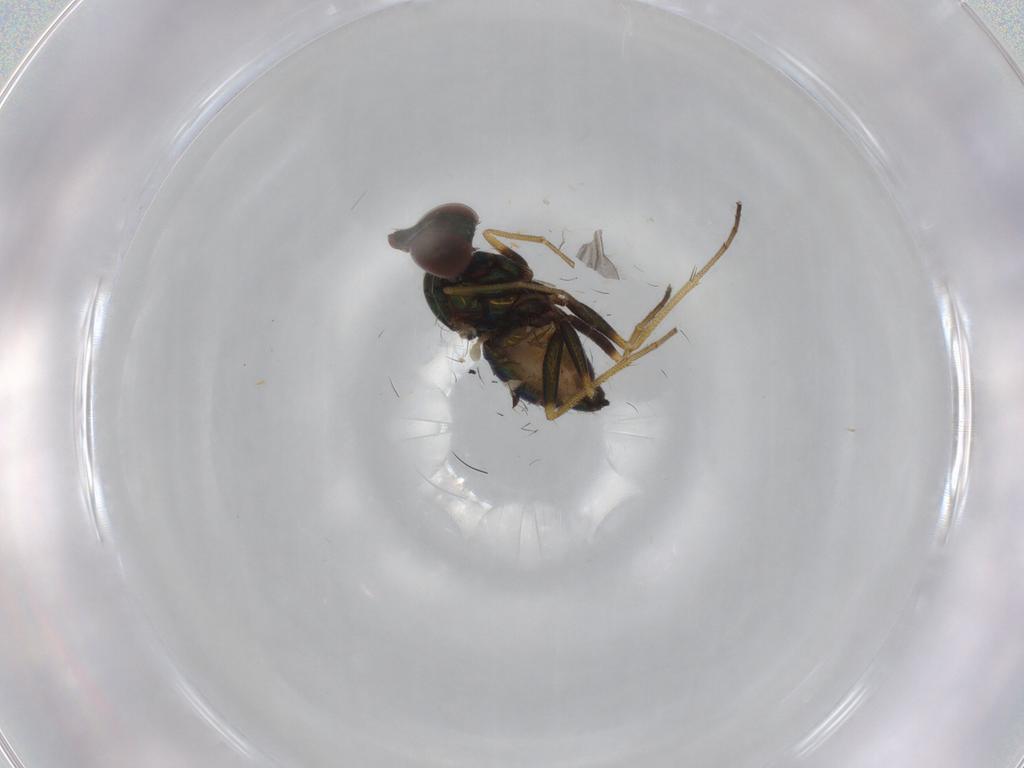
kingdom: Animalia
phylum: Arthropoda
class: Insecta
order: Diptera
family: Dolichopodidae
